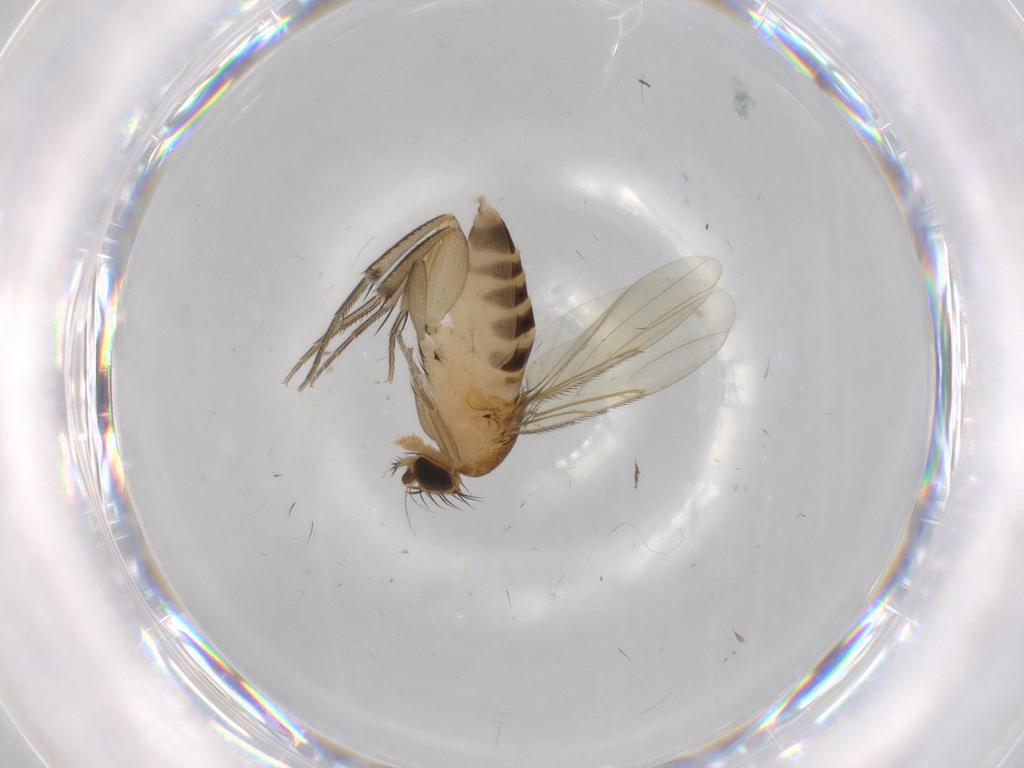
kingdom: Animalia
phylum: Arthropoda
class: Insecta
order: Diptera
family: Phoridae
